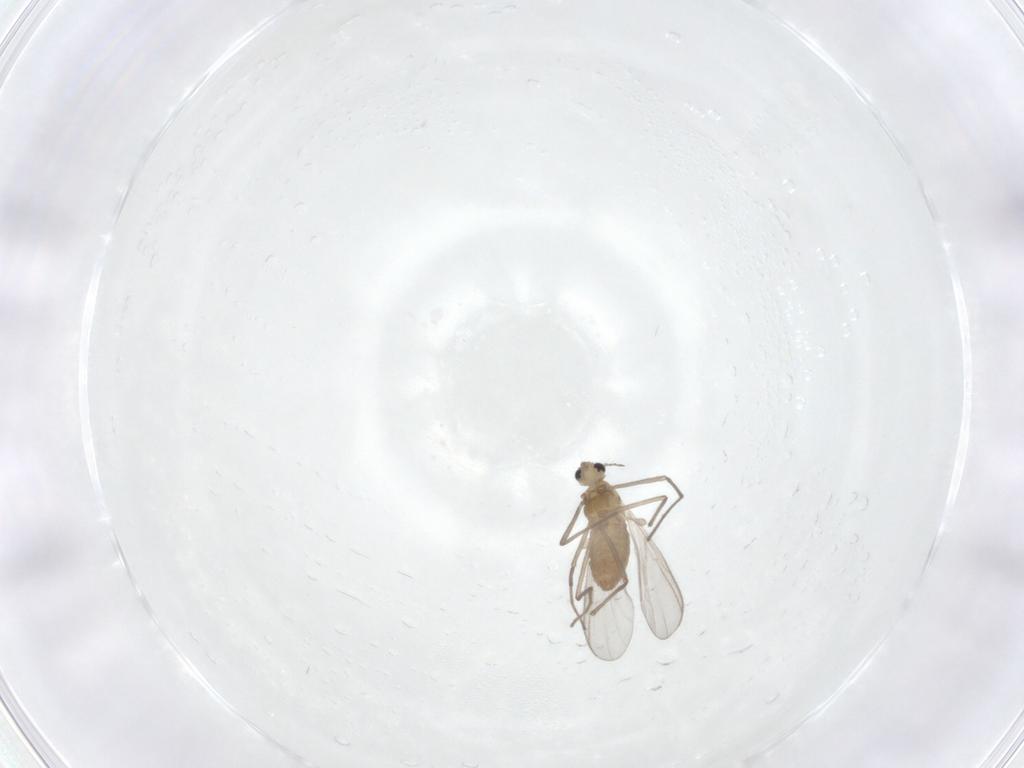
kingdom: Animalia
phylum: Arthropoda
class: Insecta
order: Diptera
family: Chironomidae
